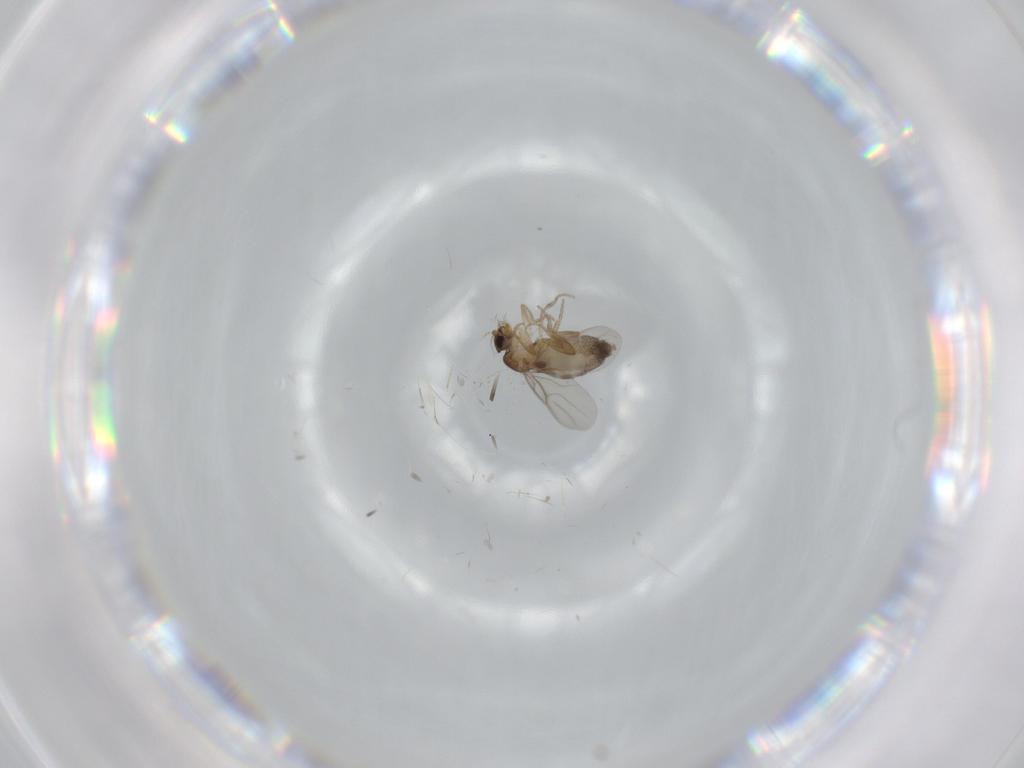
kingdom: Animalia
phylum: Arthropoda
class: Insecta
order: Diptera
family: Phoridae
